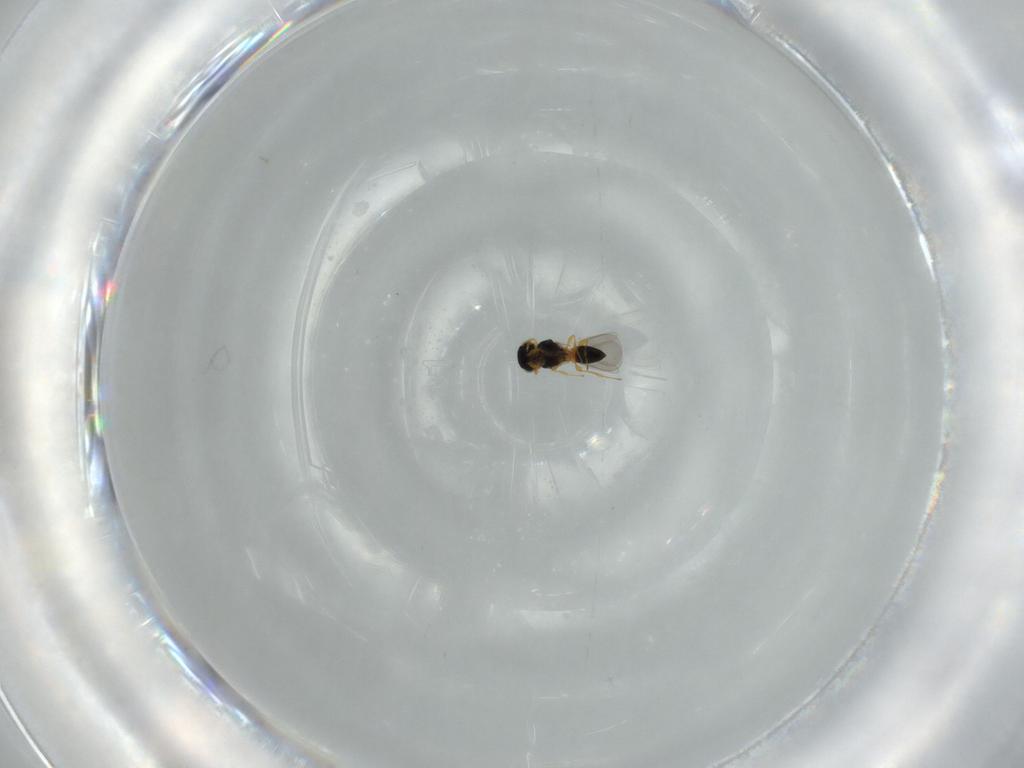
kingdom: Animalia
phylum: Arthropoda
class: Insecta
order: Hymenoptera
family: Platygastridae
